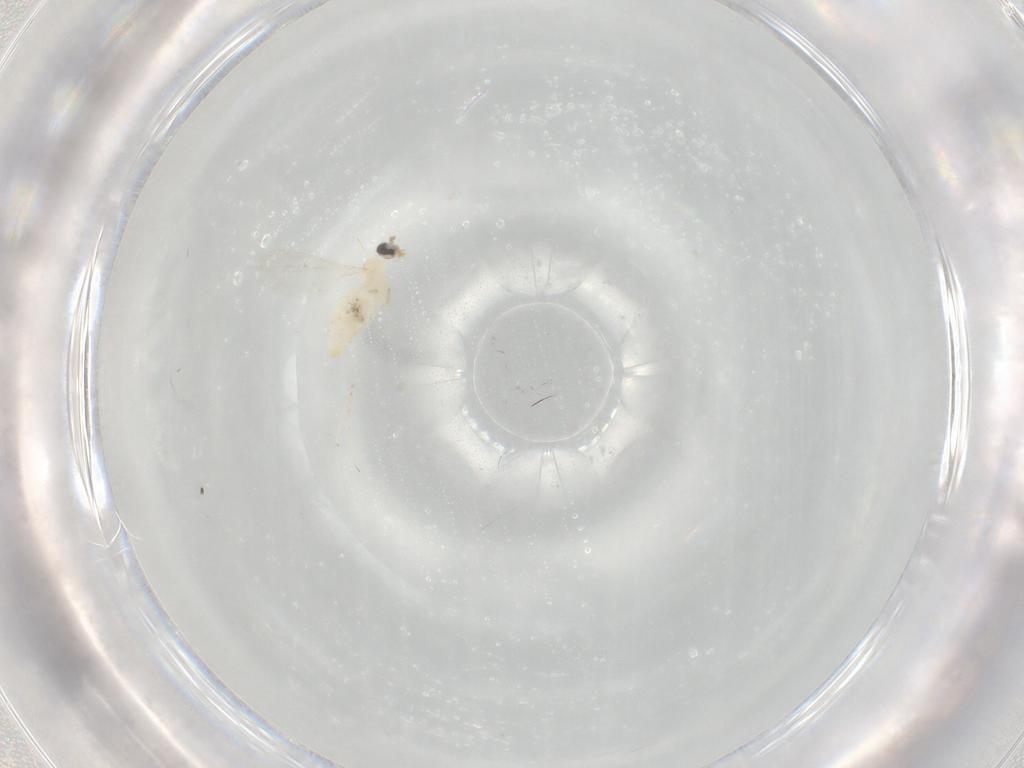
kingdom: Animalia
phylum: Arthropoda
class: Insecta
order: Diptera
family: Cecidomyiidae
